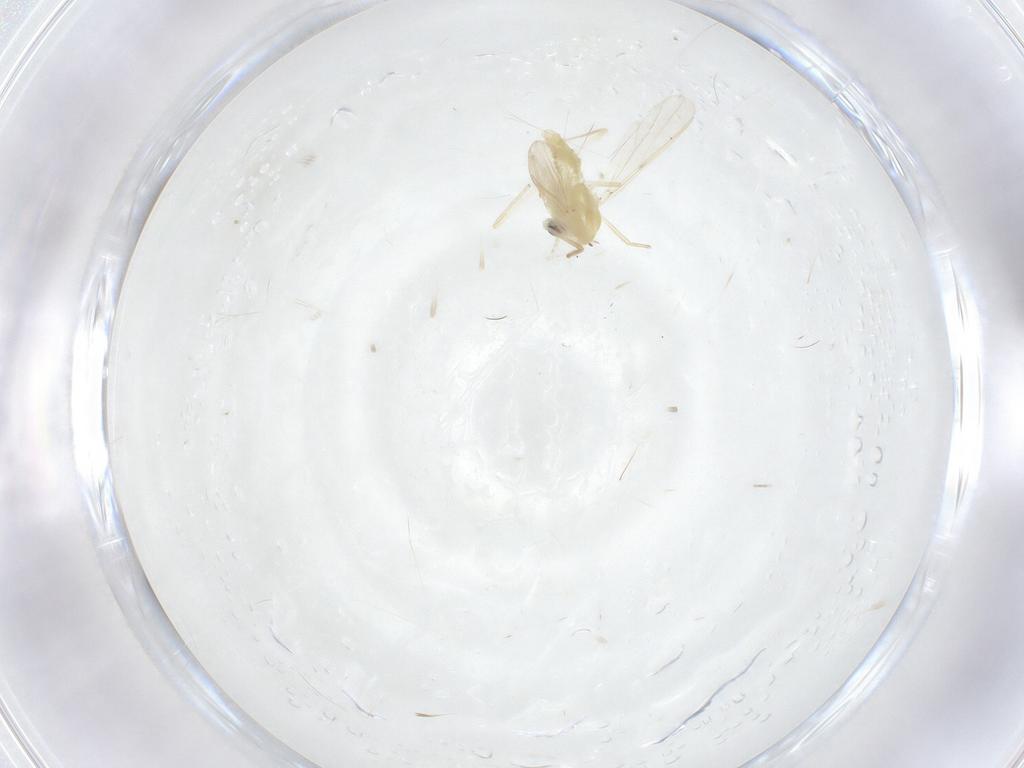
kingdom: Animalia
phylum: Arthropoda
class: Insecta
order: Diptera
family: Chironomidae
